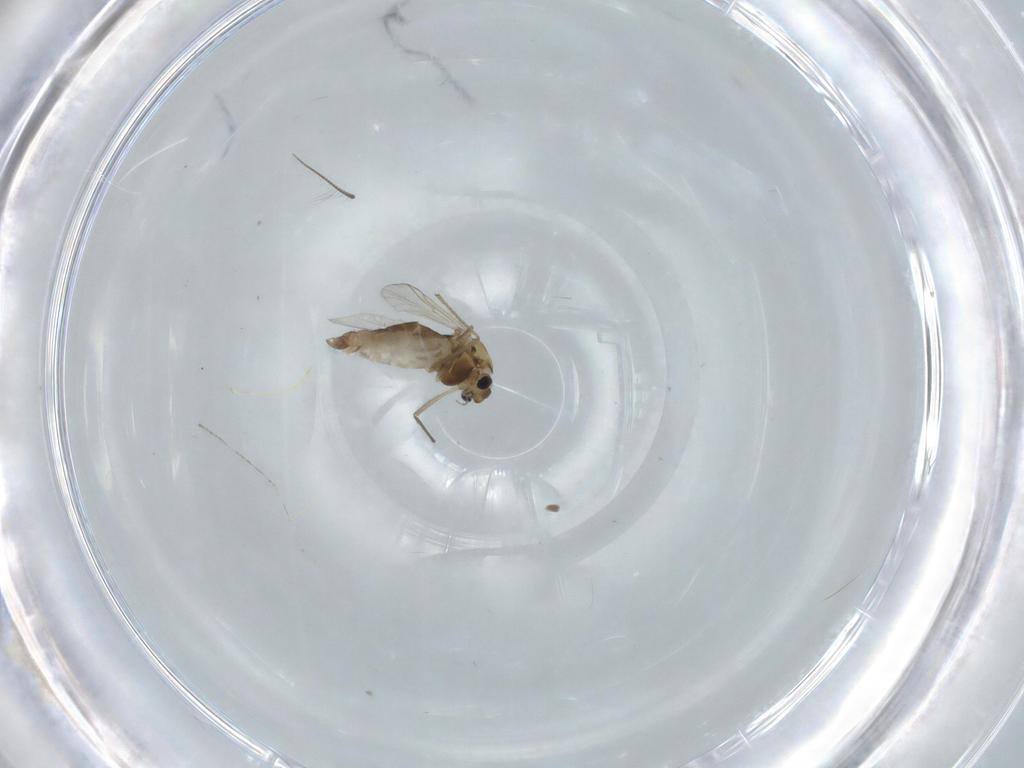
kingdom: Animalia
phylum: Arthropoda
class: Insecta
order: Diptera
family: Chironomidae
